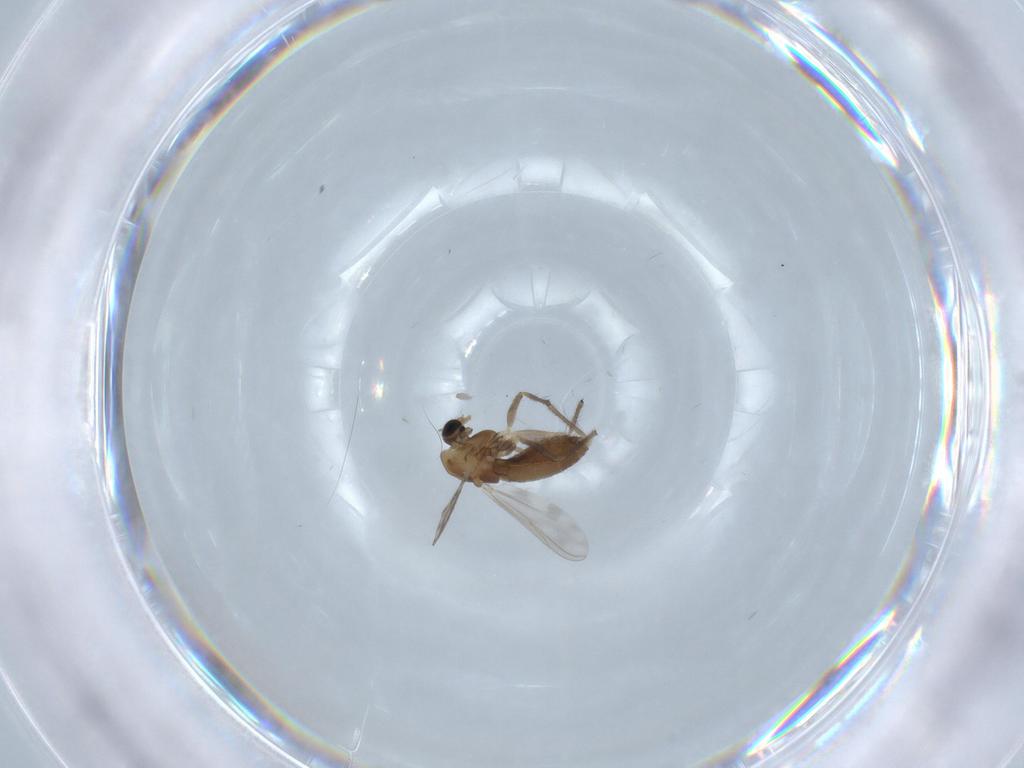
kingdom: Animalia
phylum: Arthropoda
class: Insecta
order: Diptera
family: Chironomidae
